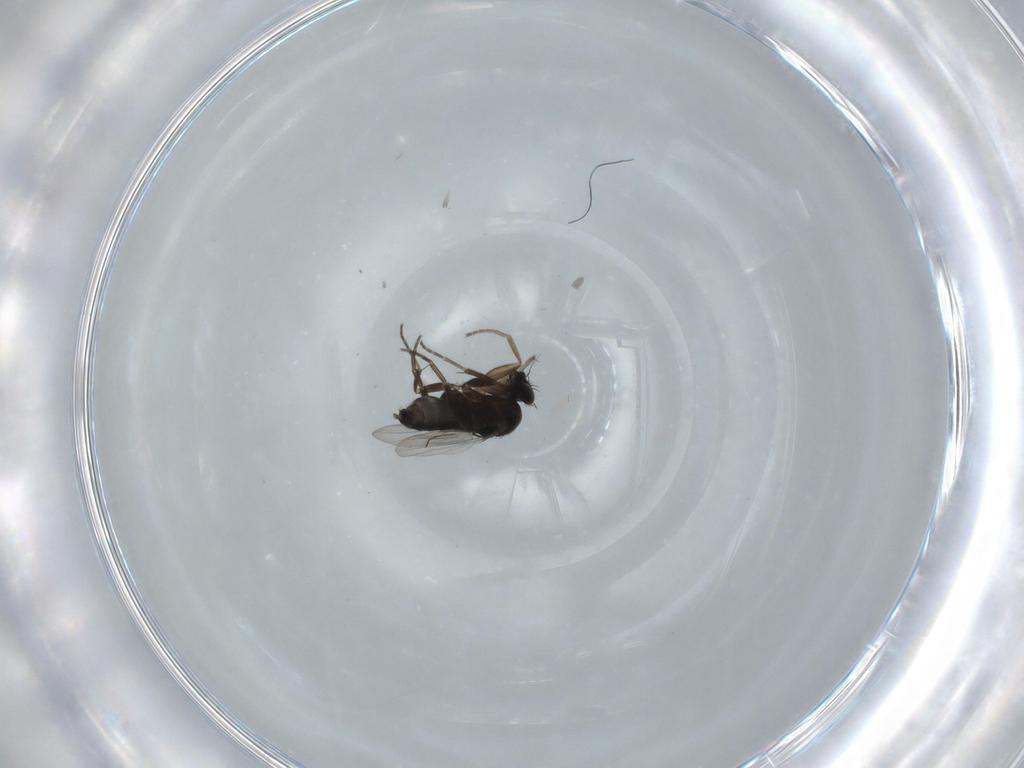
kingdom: Animalia
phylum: Arthropoda
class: Insecta
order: Diptera
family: Phoridae
